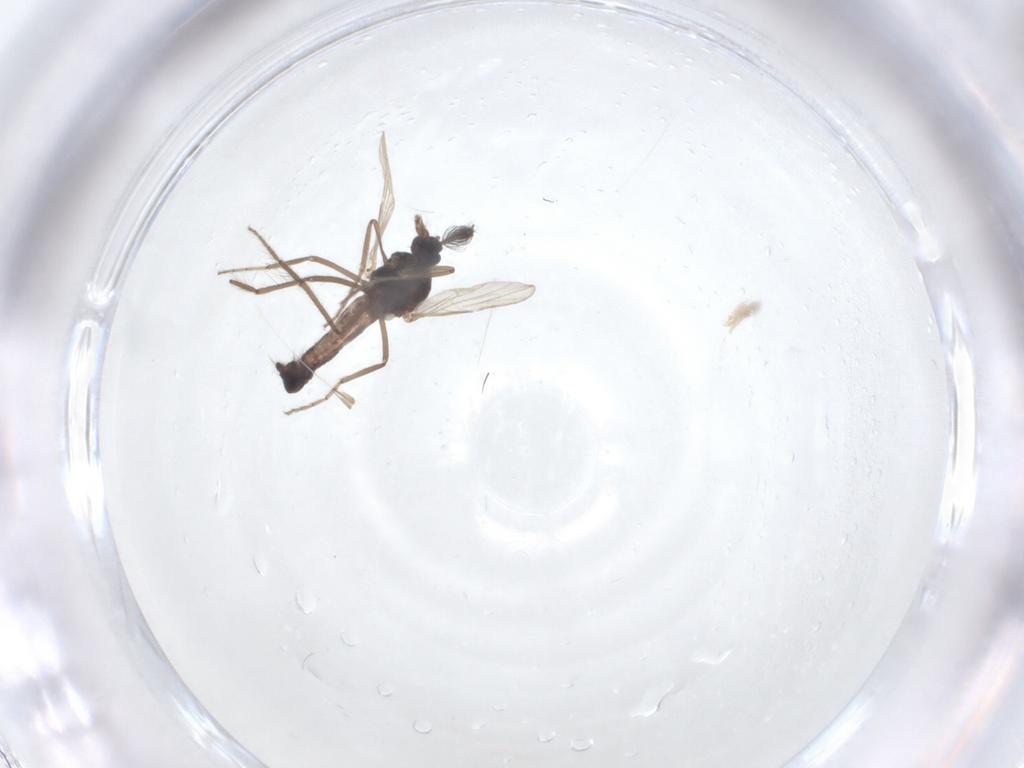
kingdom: Animalia
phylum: Arthropoda
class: Insecta
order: Diptera
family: Ceratopogonidae
